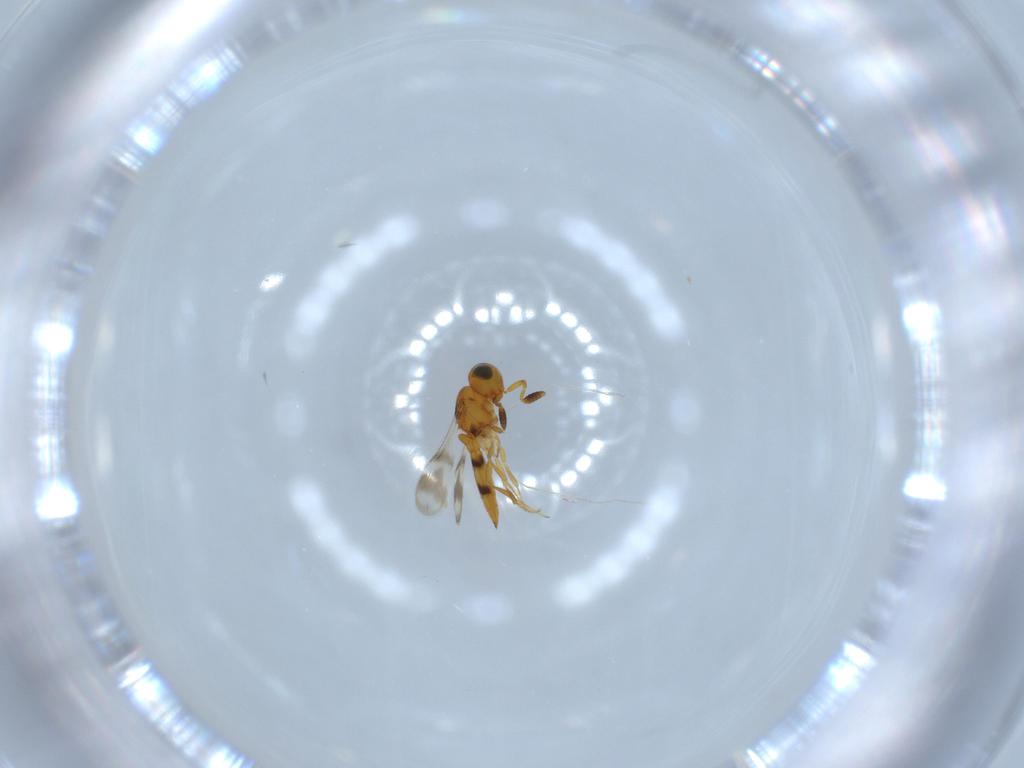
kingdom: Animalia
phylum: Arthropoda
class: Insecta
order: Hymenoptera
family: Scelionidae
